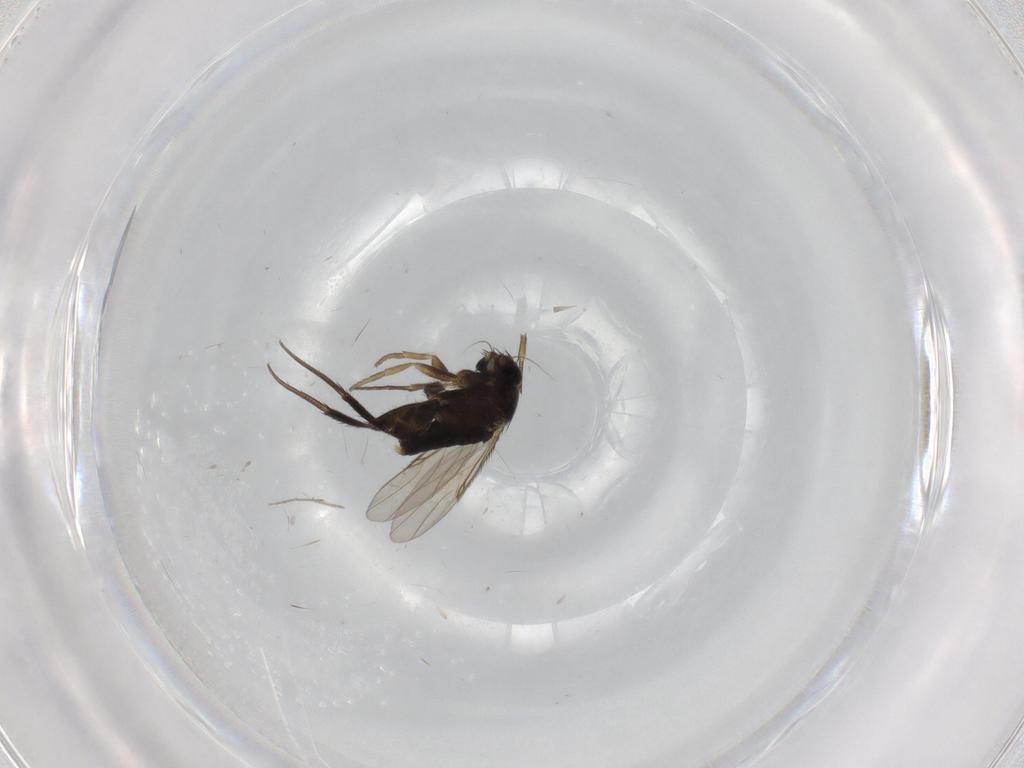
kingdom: Animalia
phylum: Arthropoda
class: Insecta
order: Diptera
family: Phoridae
